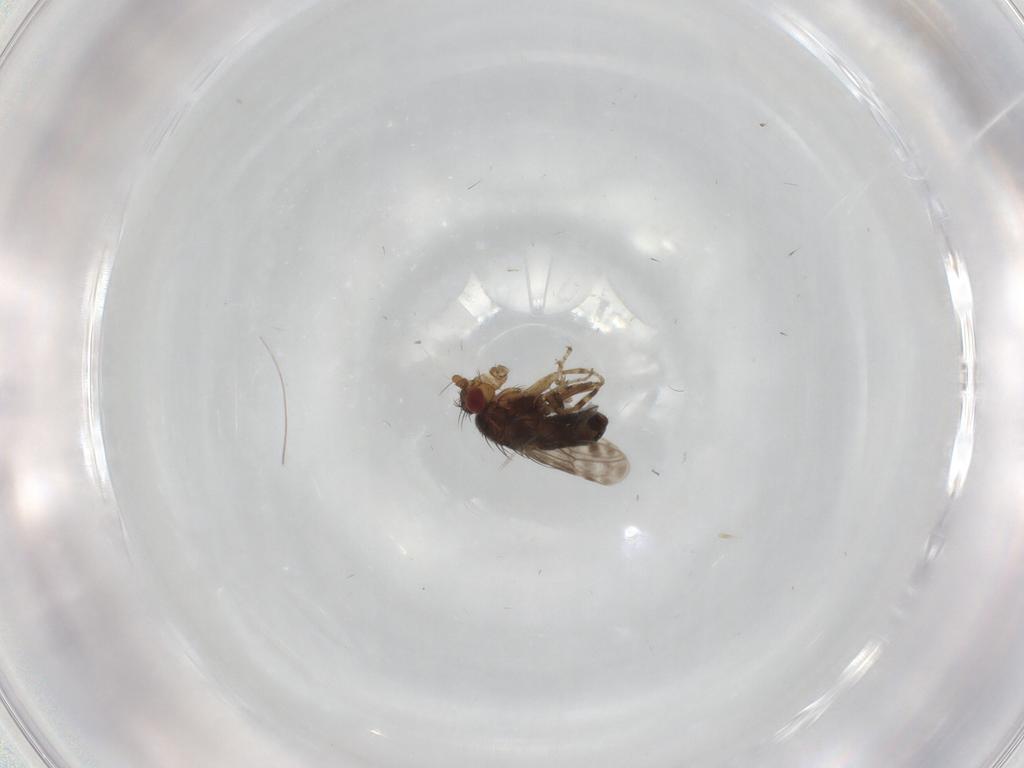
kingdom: Animalia
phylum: Arthropoda
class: Insecta
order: Diptera
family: Sphaeroceridae
